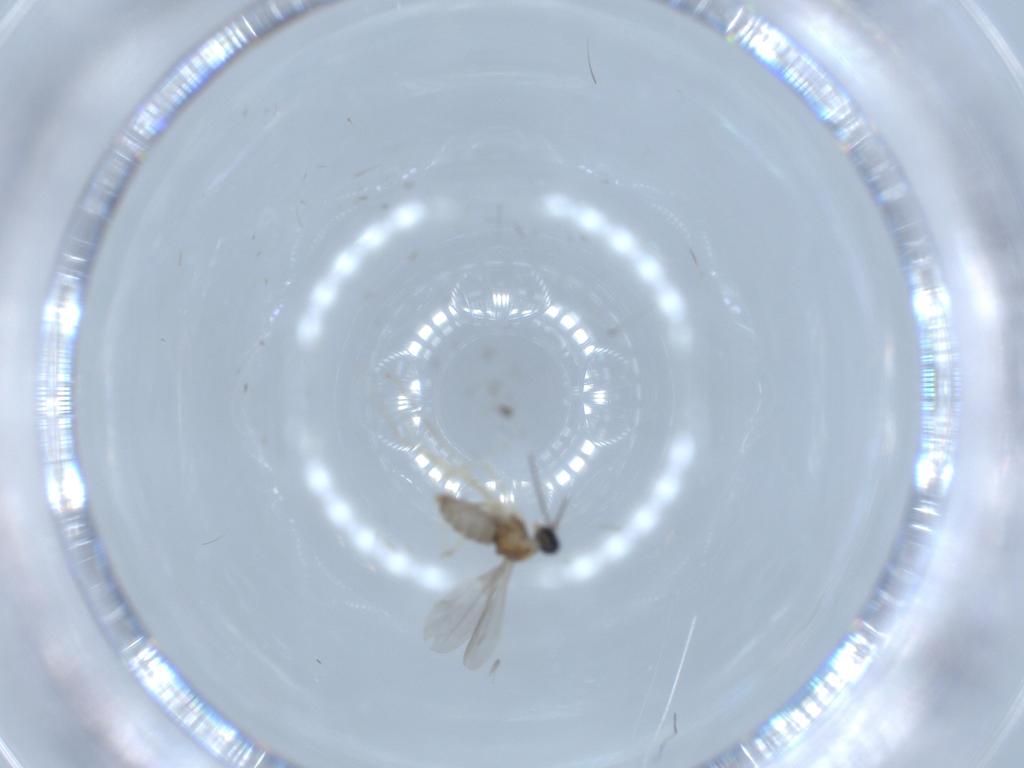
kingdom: Animalia
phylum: Arthropoda
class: Insecta
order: Diptera
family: Cecidomyiidae
